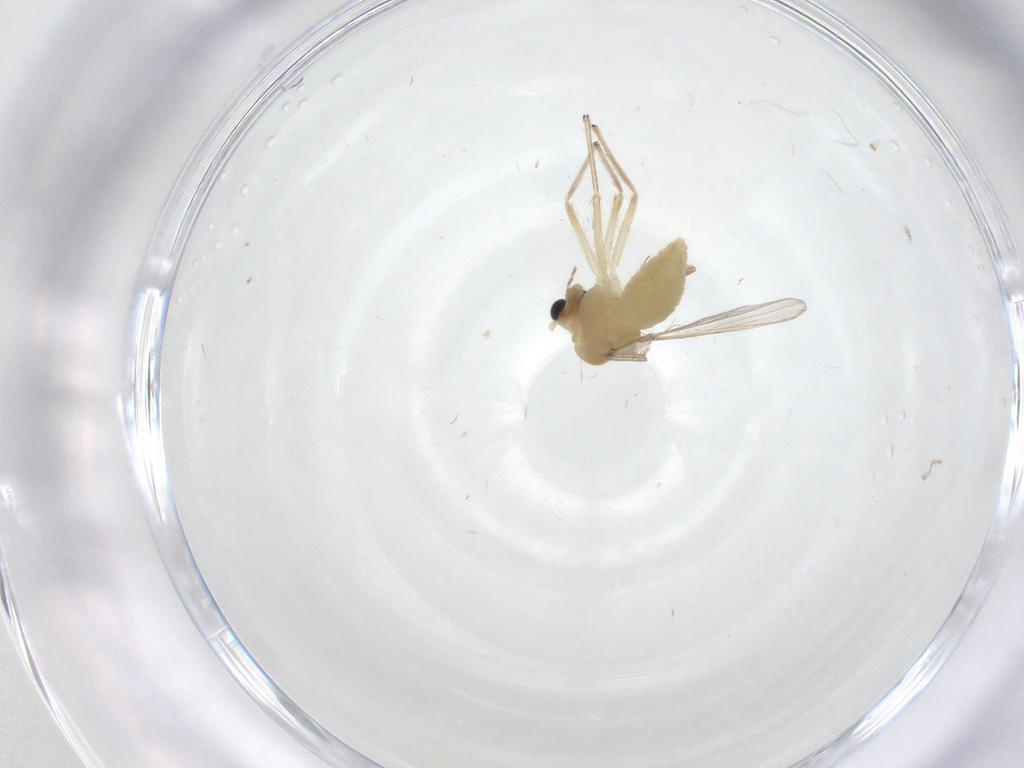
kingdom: Animalia
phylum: Arthropoda
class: Insecta
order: Diptera
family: Chironomidae
